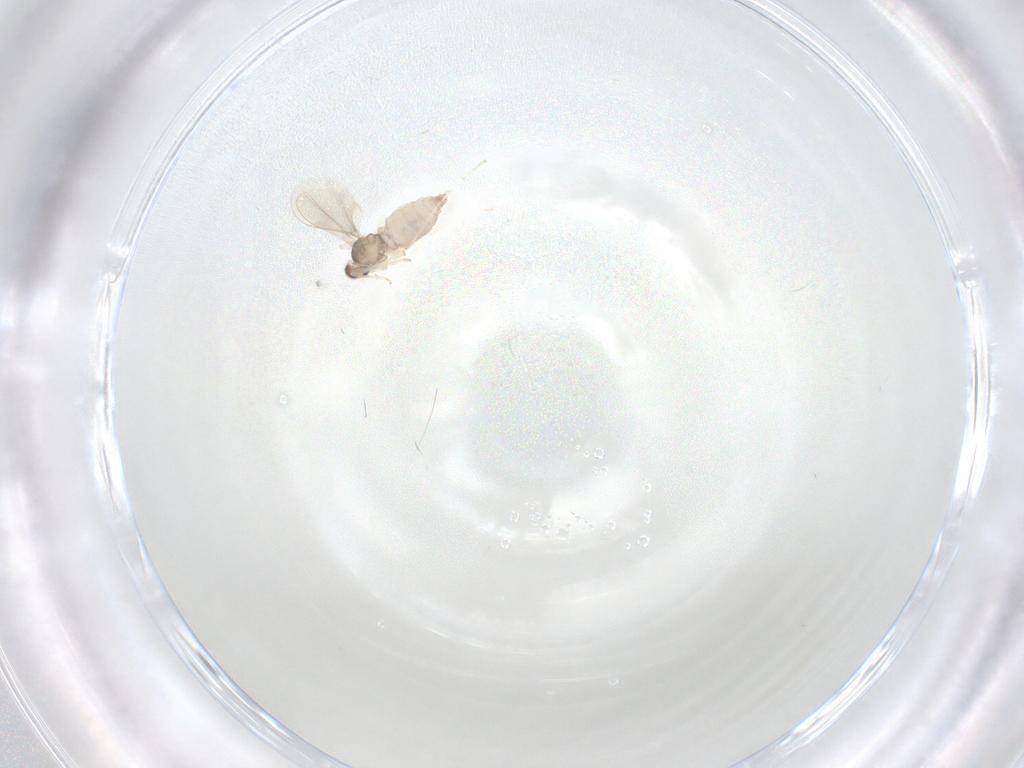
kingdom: Animalia
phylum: Arthropoda
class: Insecta
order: Diptera
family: Cecidomyiidae
